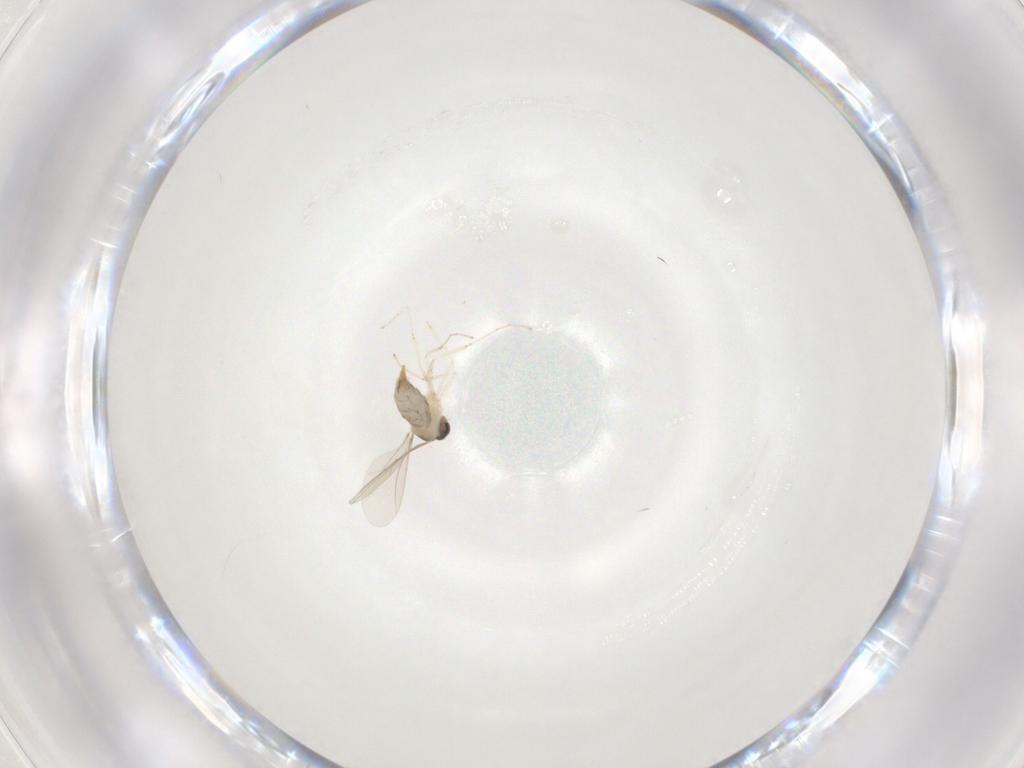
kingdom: Animalia
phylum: Arthropoda
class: Insecta
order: Diptera
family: Cecidomyiidae
